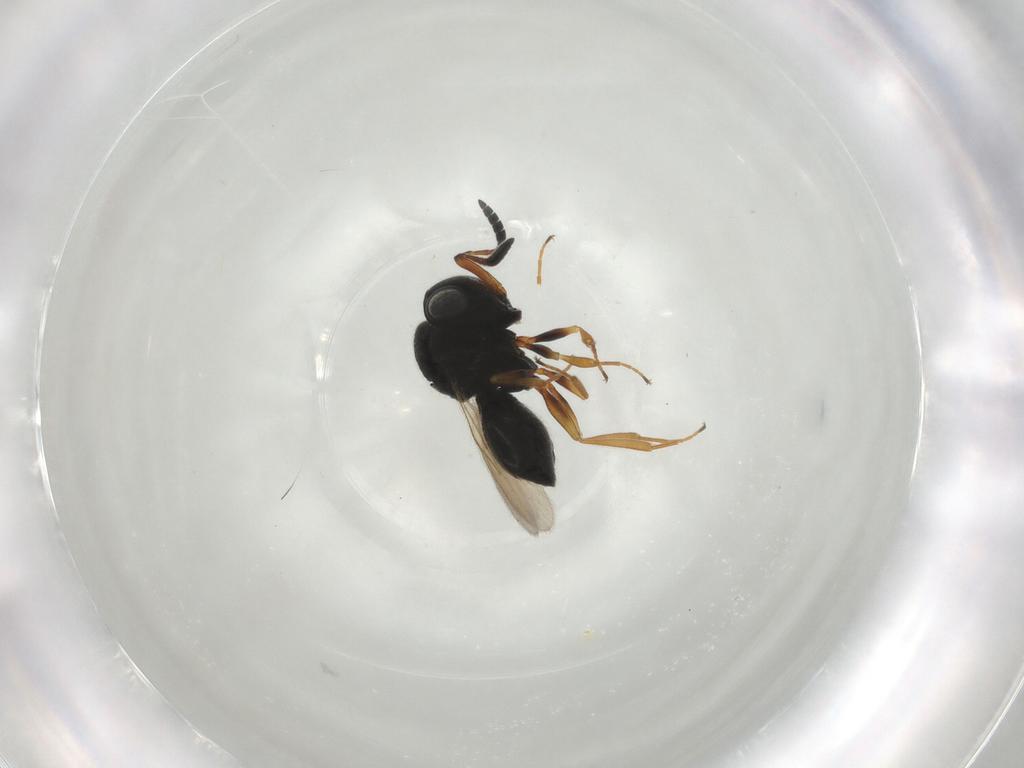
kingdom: Animalia
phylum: Arthropoda
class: Insecta
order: Hymenoptera
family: Scelionidae
